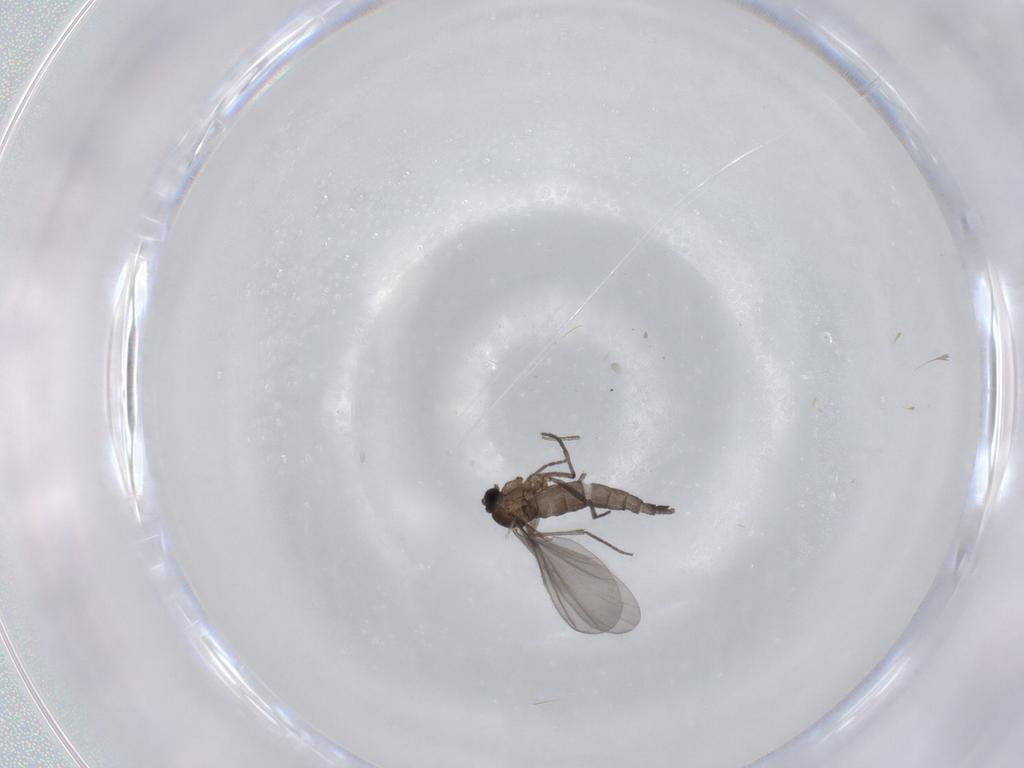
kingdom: Animalia
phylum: Arthropoda
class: Insecta
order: Diptera
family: Sciaridae
